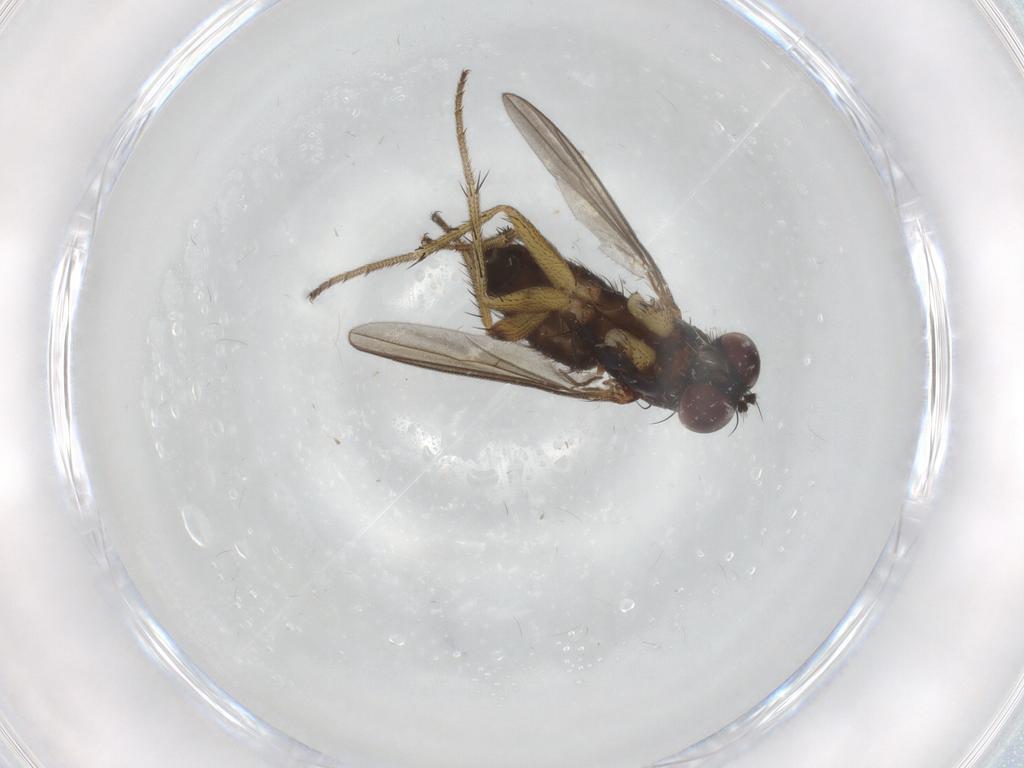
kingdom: Animalia
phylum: Arthropoda
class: Insecta
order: Diptera
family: Dolichopodidae
